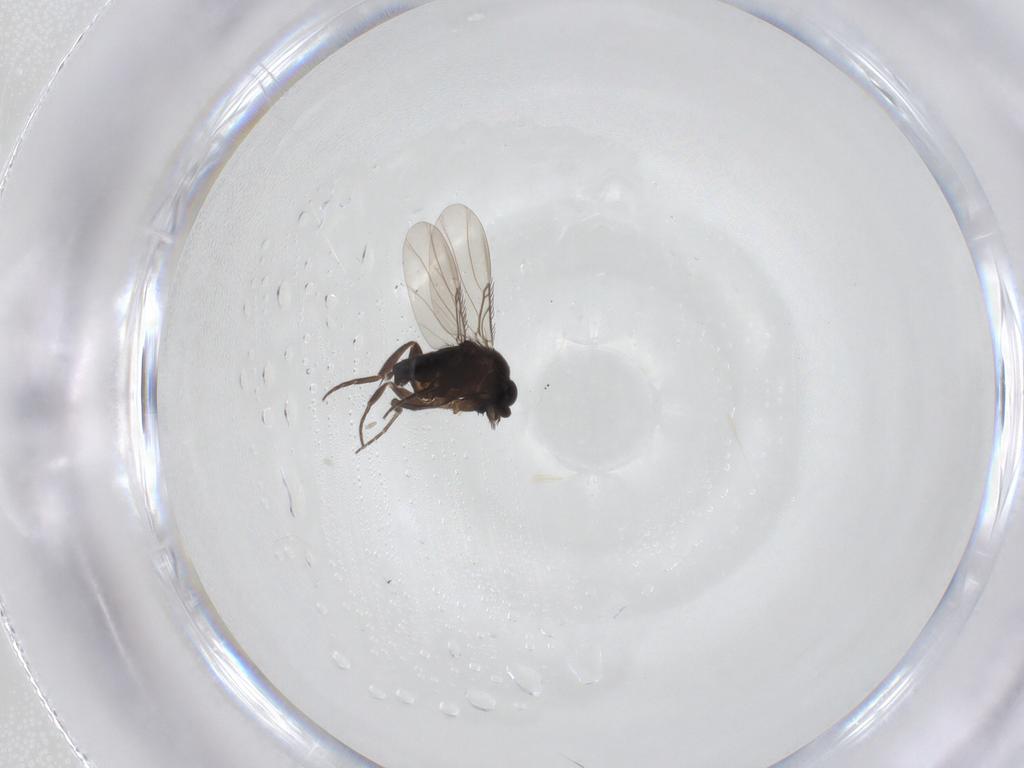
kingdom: Animalia
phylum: Arthropoda
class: Insecta
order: Diptera
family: Phoridae
